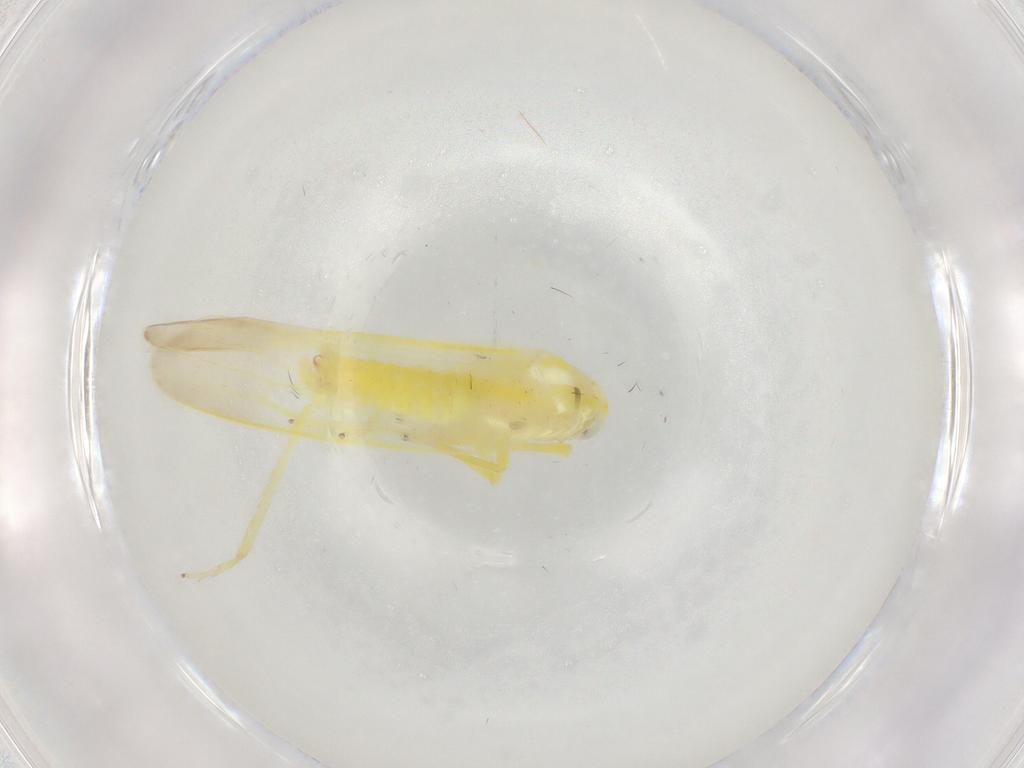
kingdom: Animalia
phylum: Arthropoda
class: Insecta
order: Hemiptera
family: Cicadellidae
